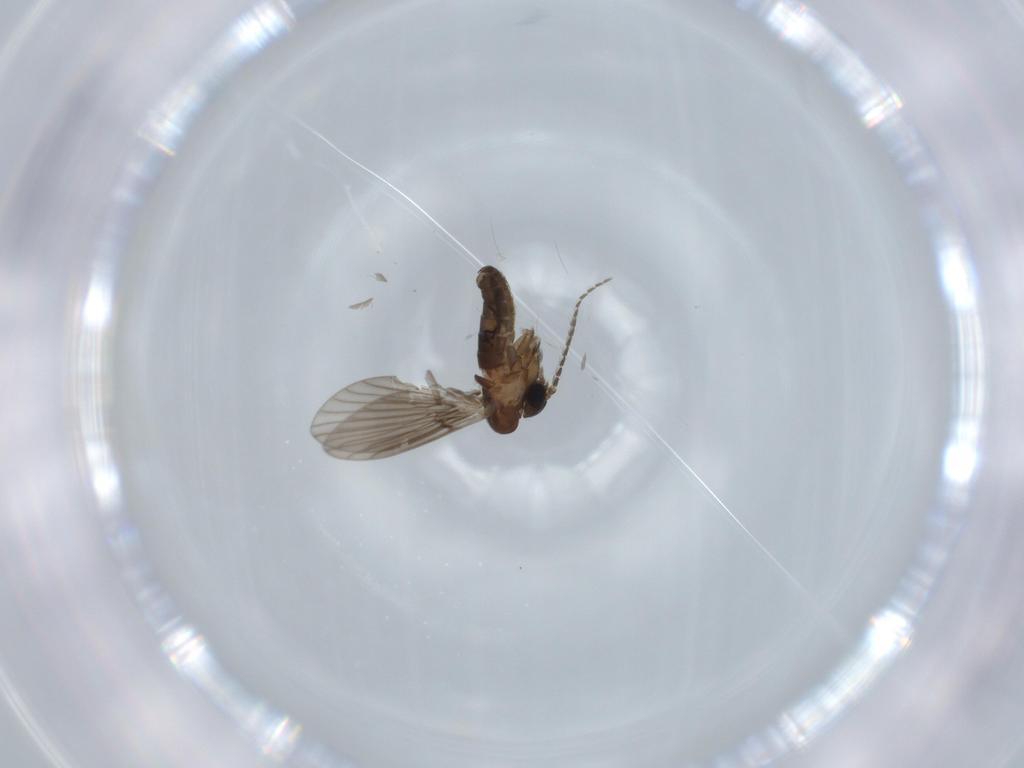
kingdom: Animalia
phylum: Arthropoda
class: Insecta
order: Diptera
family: Psychodidae
